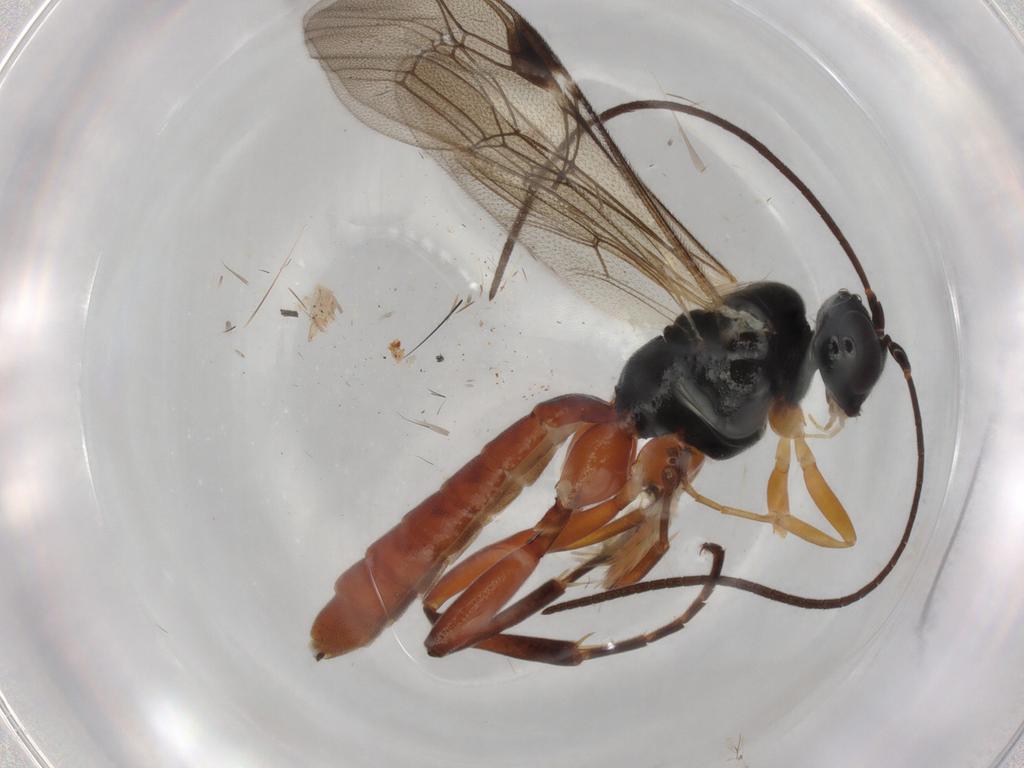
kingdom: Animalia
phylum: Arthropoda
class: Insecta
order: Hymenoptera
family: Ichneumonidae
